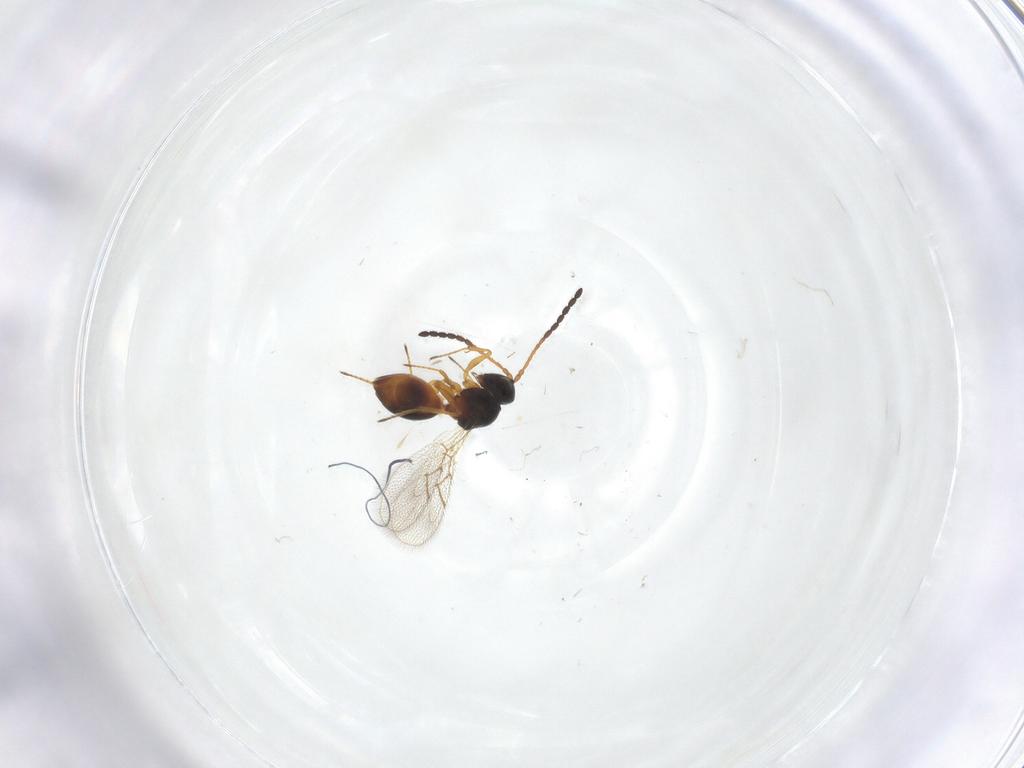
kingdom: Animalia
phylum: Arthropoda
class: Insecta
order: Hymenoptera
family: Figitidae
